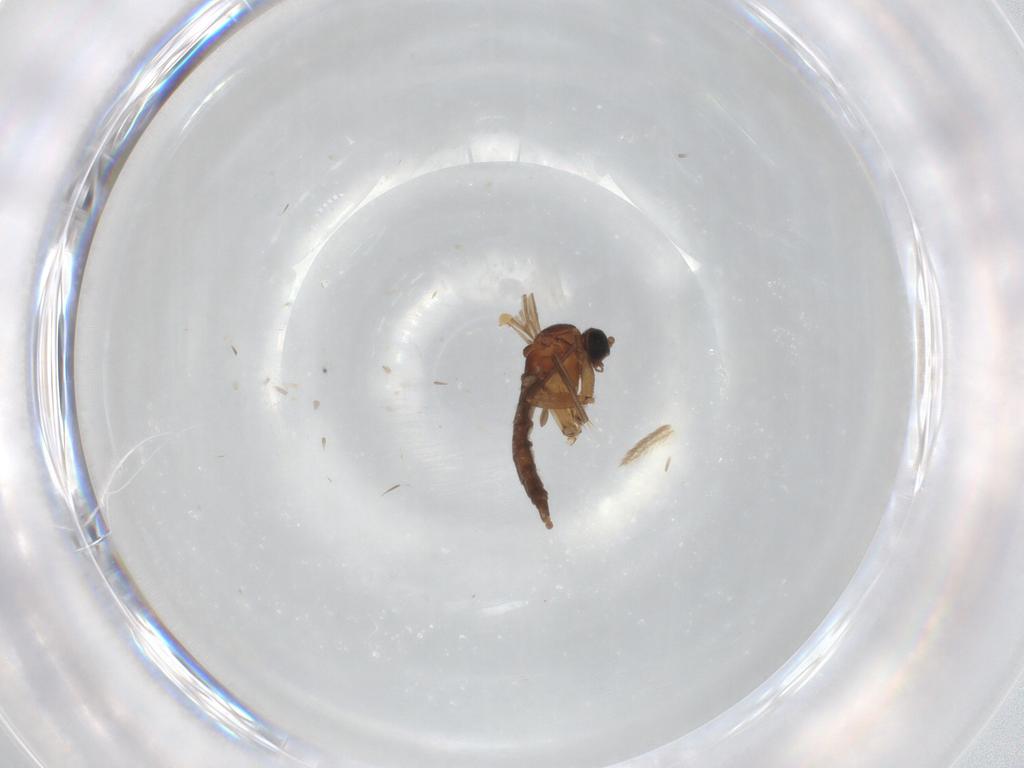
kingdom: Animalia
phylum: Arthropoda
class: Insecta
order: Diptera
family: Sciaridae
